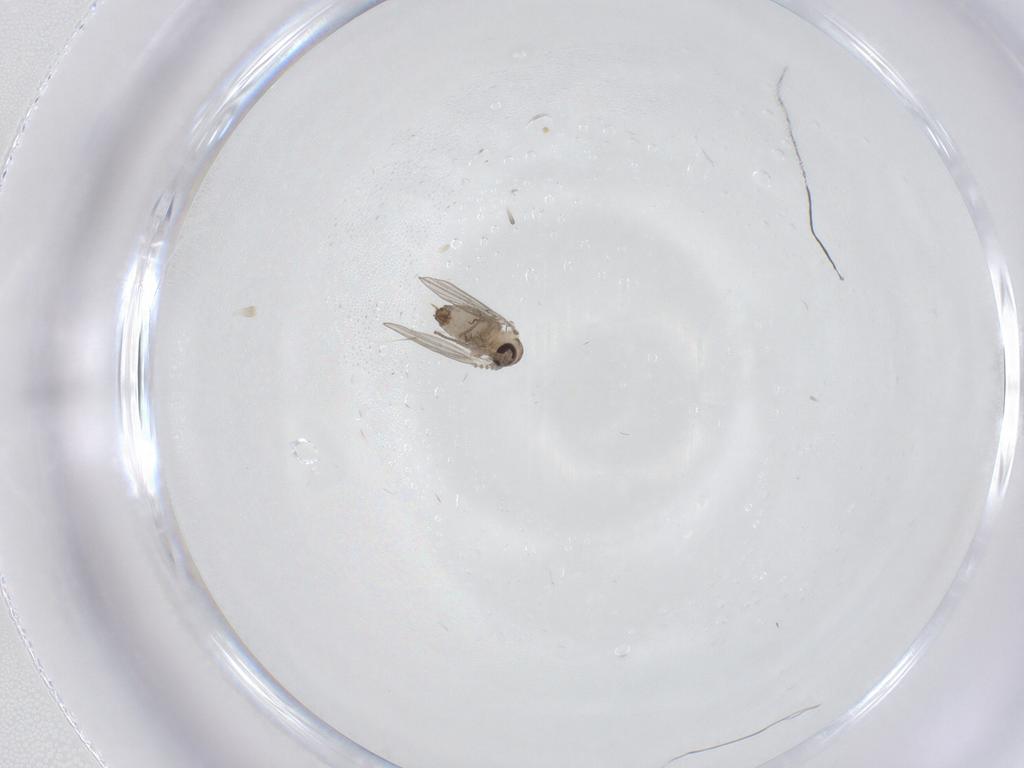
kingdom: Animalia
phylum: Arthropoda
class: Insecta
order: Diptera
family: Psychodidae
